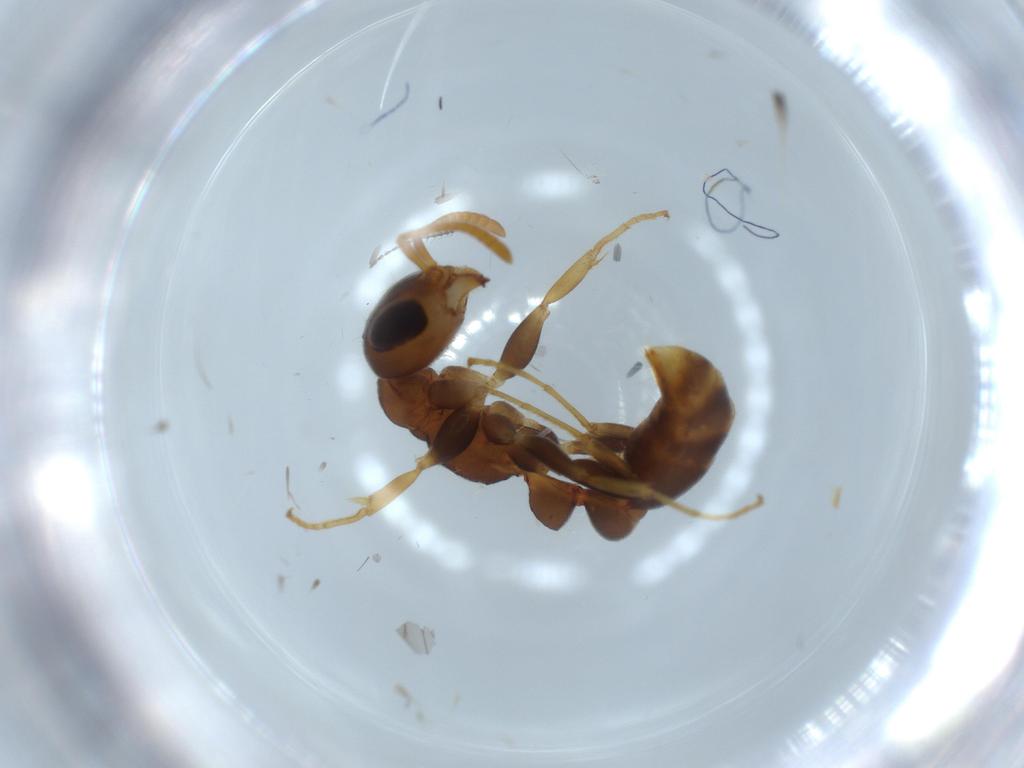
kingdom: Animalia
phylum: Arthropoda
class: Insecta
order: Hymenoptera
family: Formicidae
